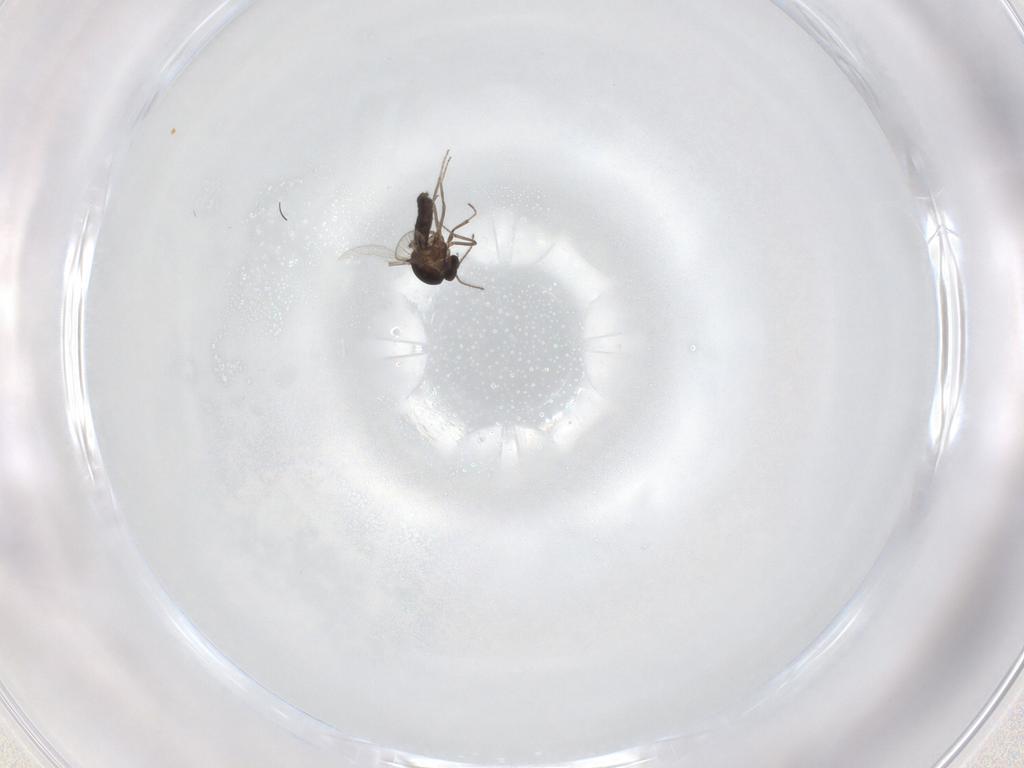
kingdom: Animalia
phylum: Arthropoda
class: Insecta
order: Diptera
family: Ceratopogonidae
